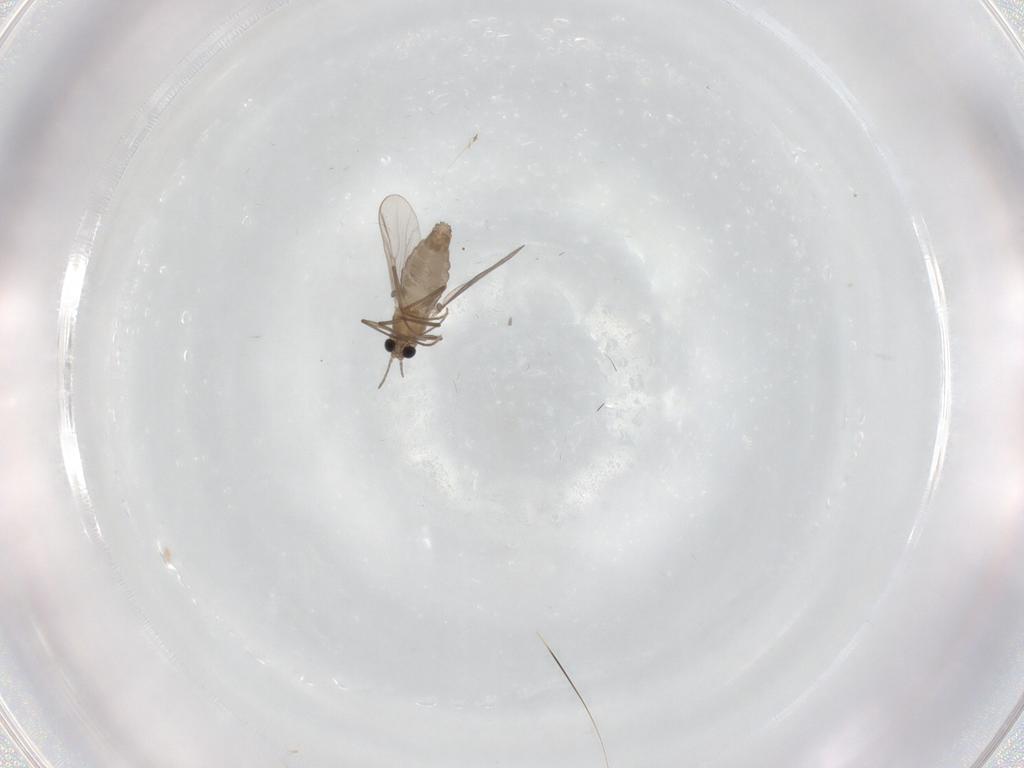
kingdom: Animalia
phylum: Arthropoda
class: Insecta
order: Diptera
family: Chironomidae
